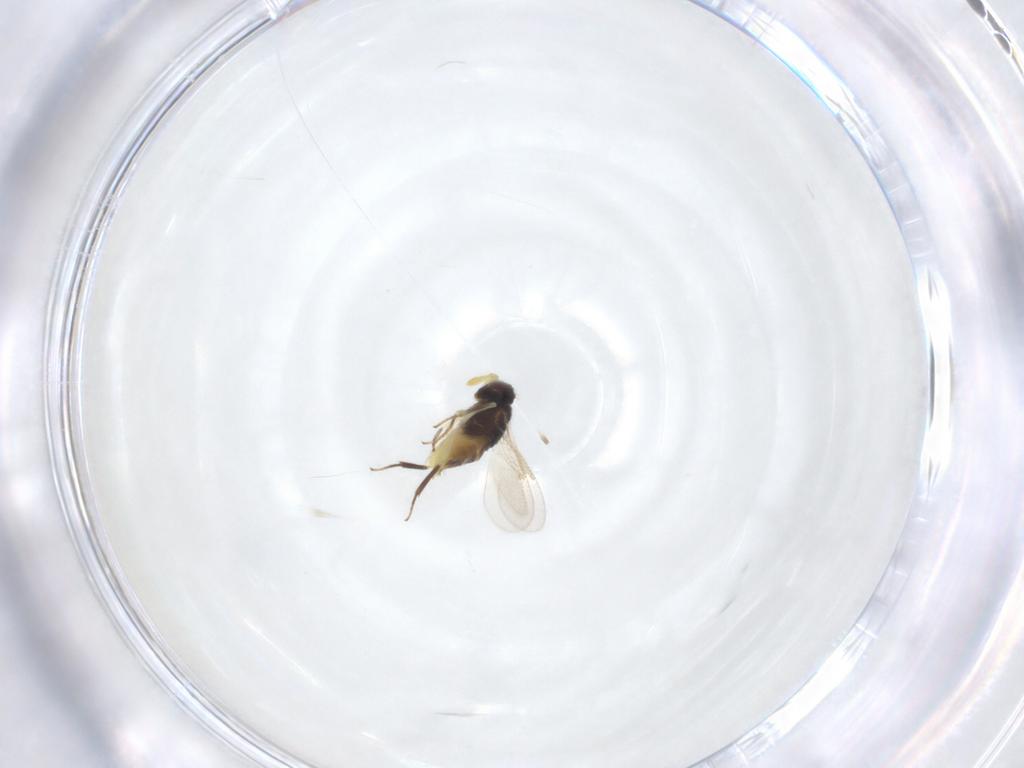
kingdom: Animalia
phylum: Arthropoda
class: Insecta
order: Hymenoptera
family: Aphelinidae
